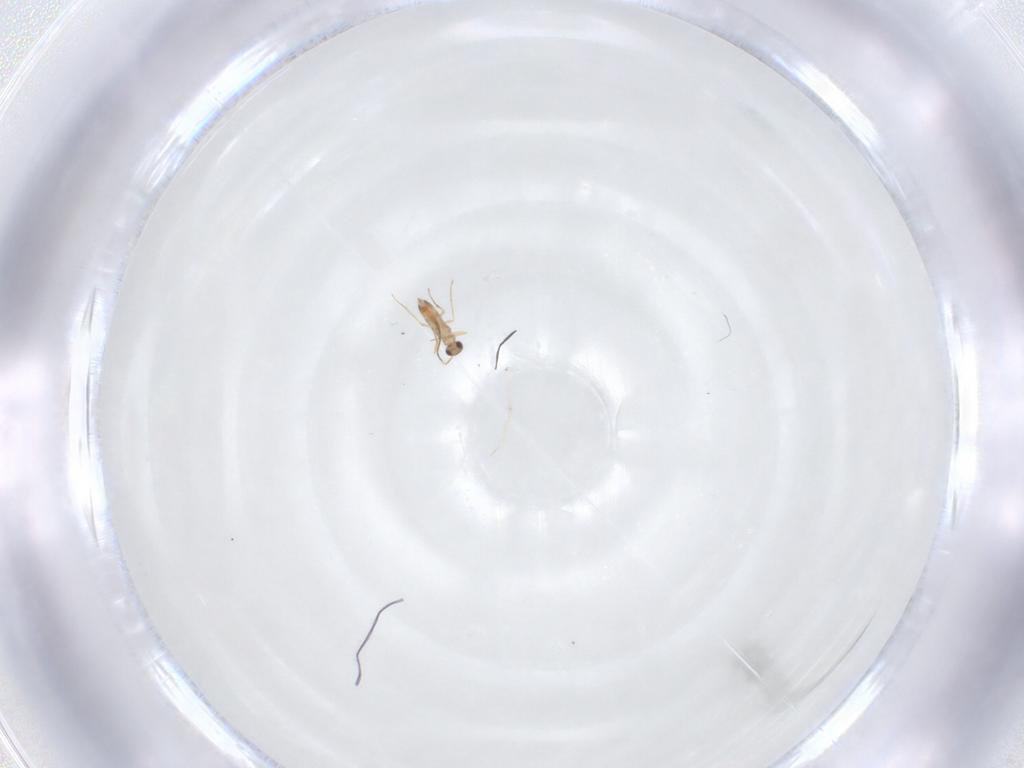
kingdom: Animalia
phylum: Arthropoda
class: Insecta
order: Hymenoptera
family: Mymaridae
